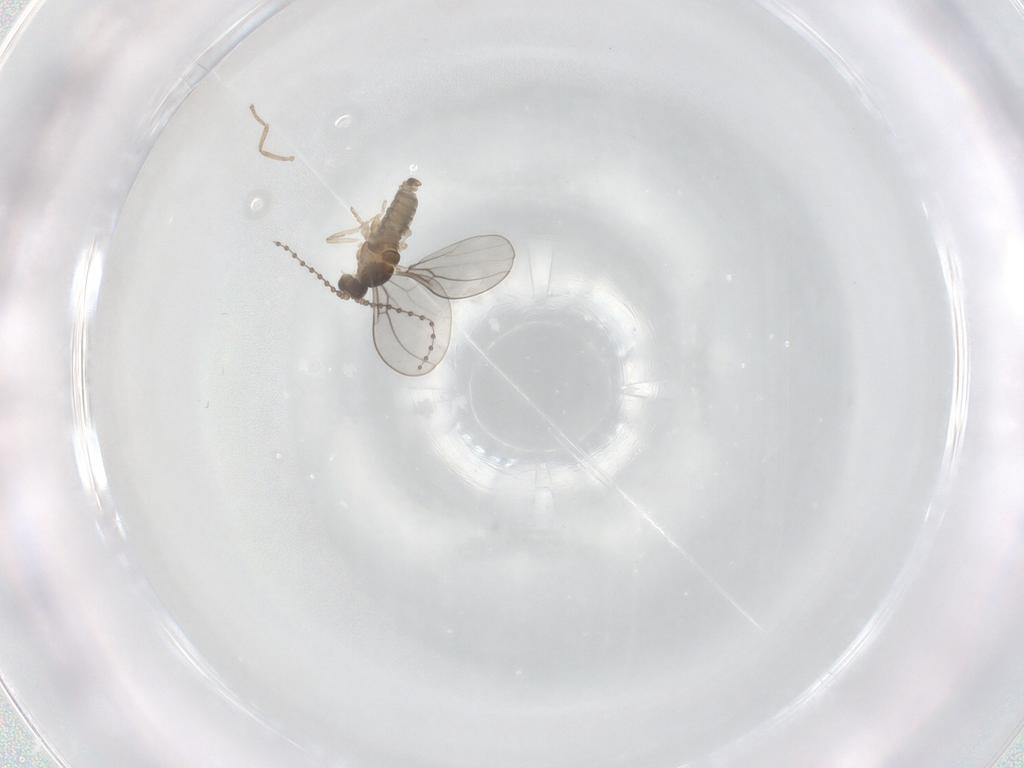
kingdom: Animalia
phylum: Arthropoda
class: Insecta
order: Diptera
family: Cecidomyiidae
